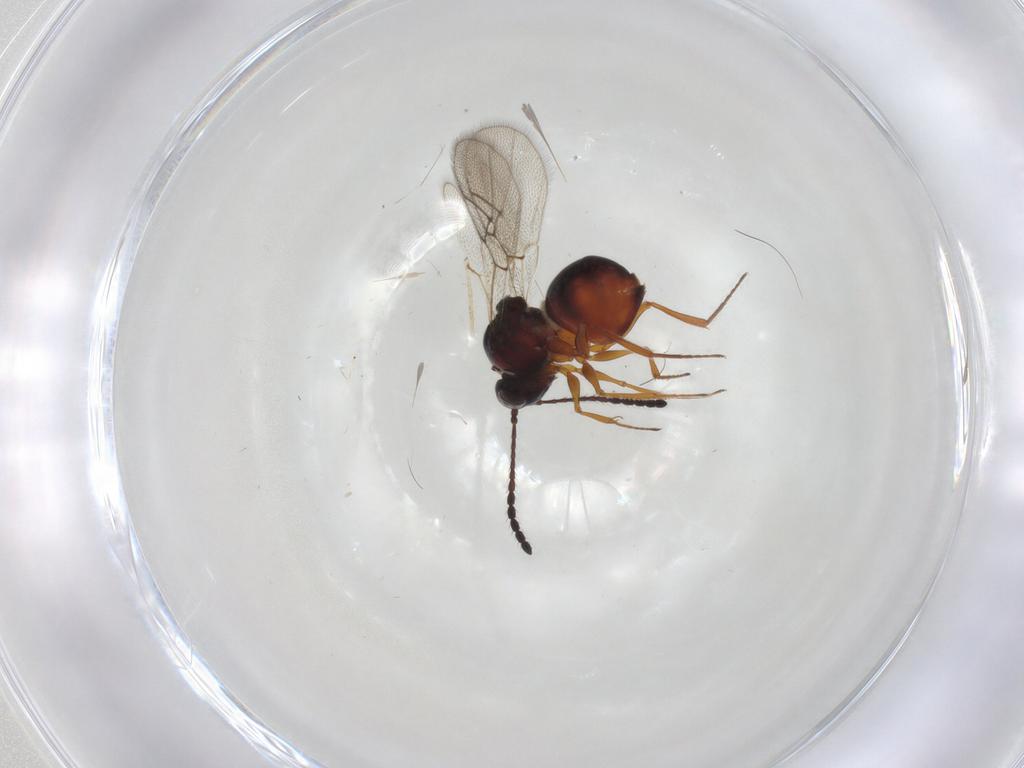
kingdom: Animalia
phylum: Arthropoda
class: Insecta
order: Hymenoptera
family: Figitidae
